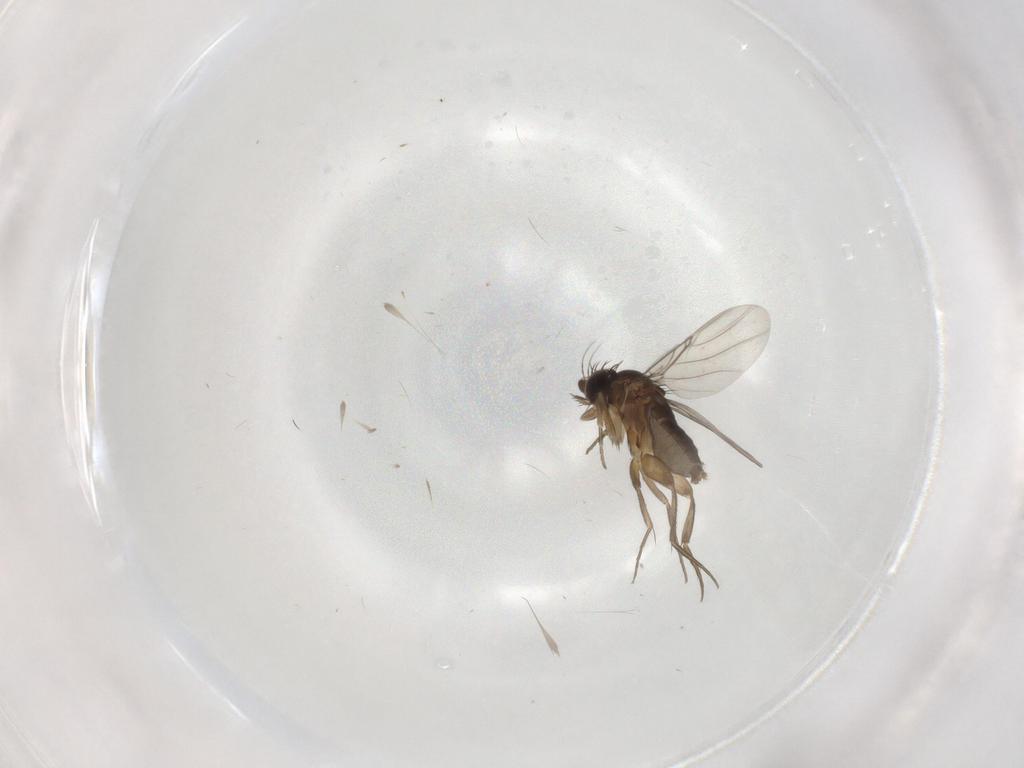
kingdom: Animalia
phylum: Arthropoda
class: Insecta
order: Diptera
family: Phoridae
